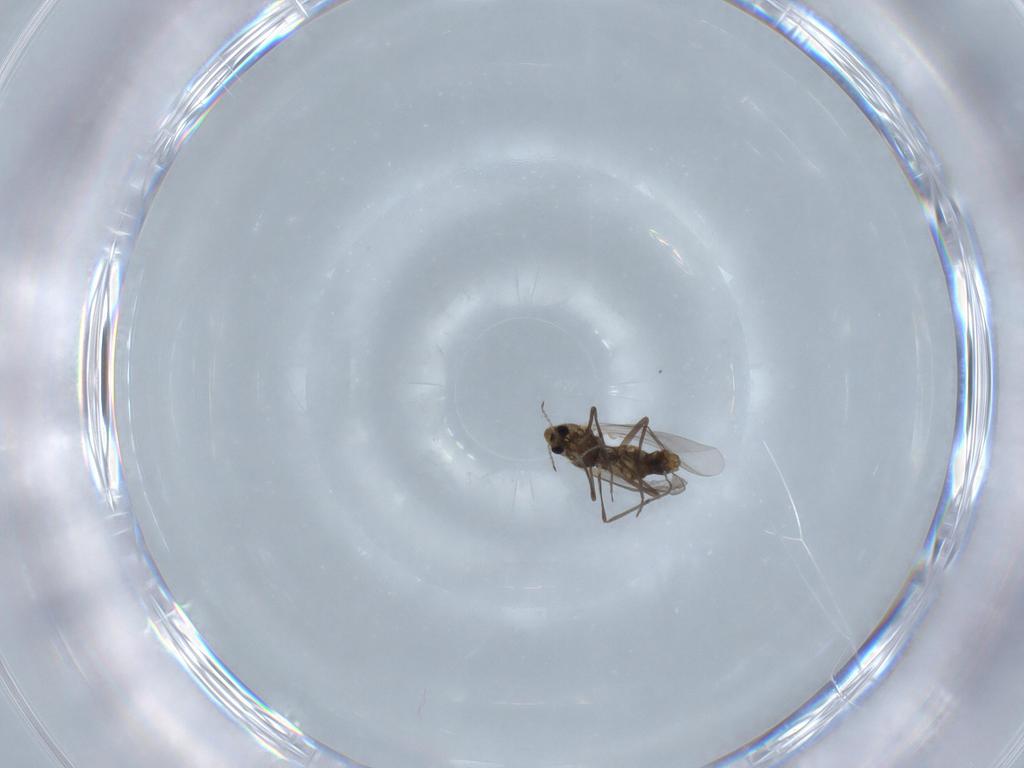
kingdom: Animalia
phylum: Arthropoda
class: Insecta
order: Diptera
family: Chironomidae
